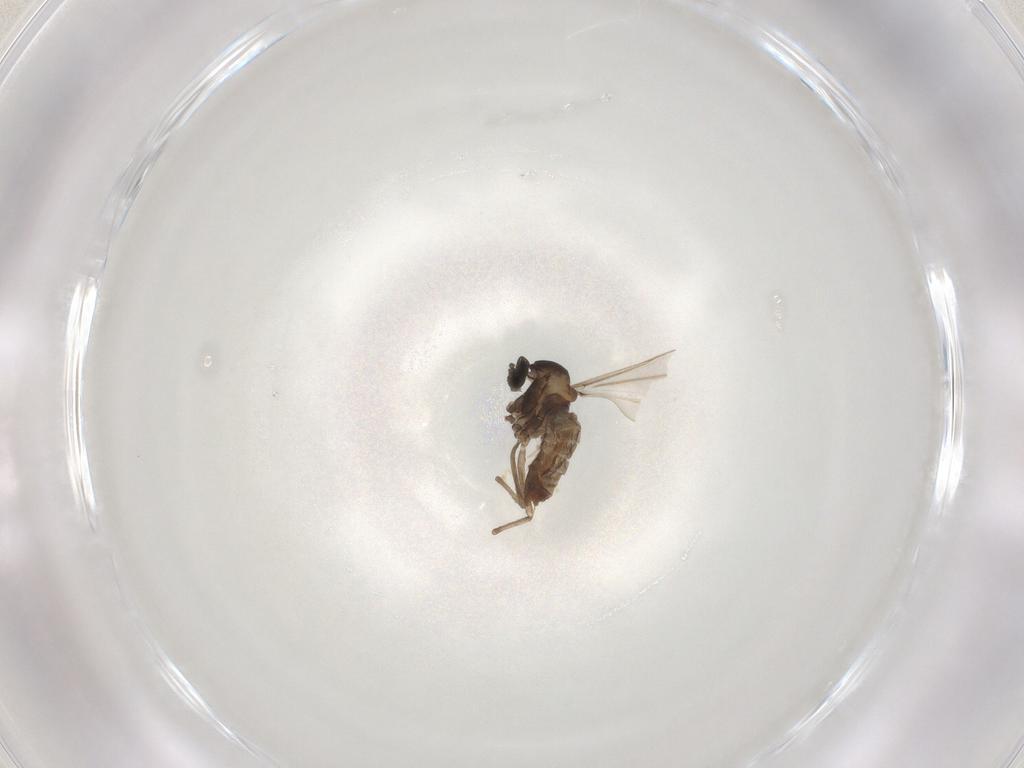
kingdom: Animalia
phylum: Arthropoda
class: Insecta
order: Diptera
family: Cecidomyiidae
